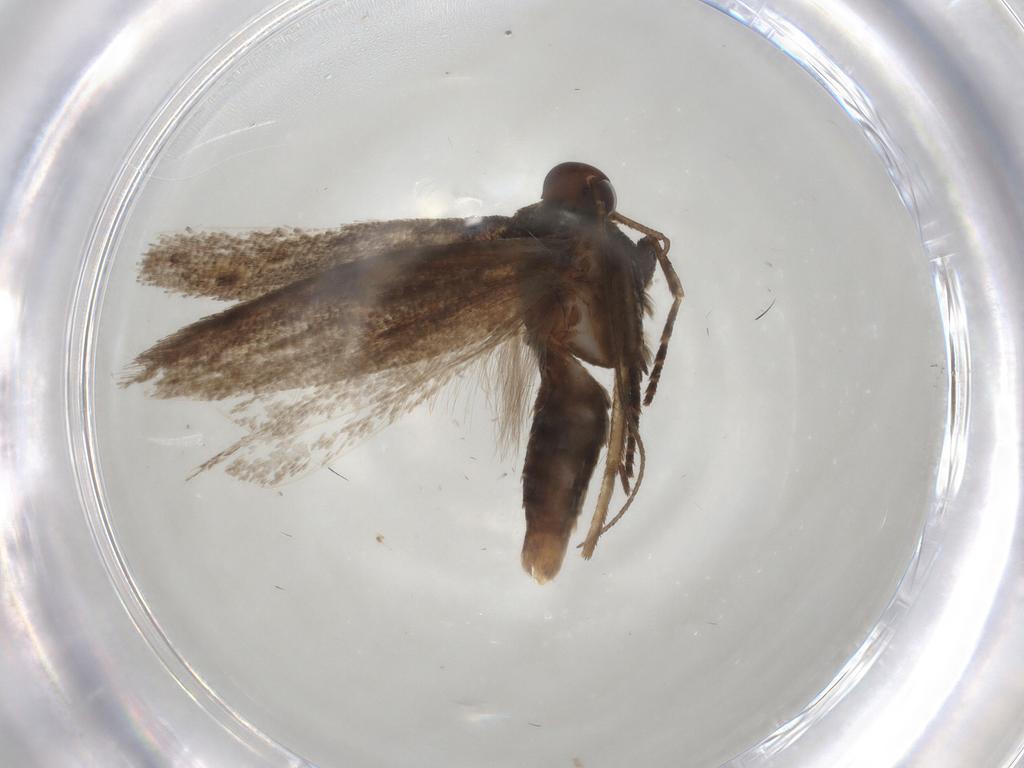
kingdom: Animalia
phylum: Arthropoda
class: Insecta
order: Lepidoptera
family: Gelechiidae
